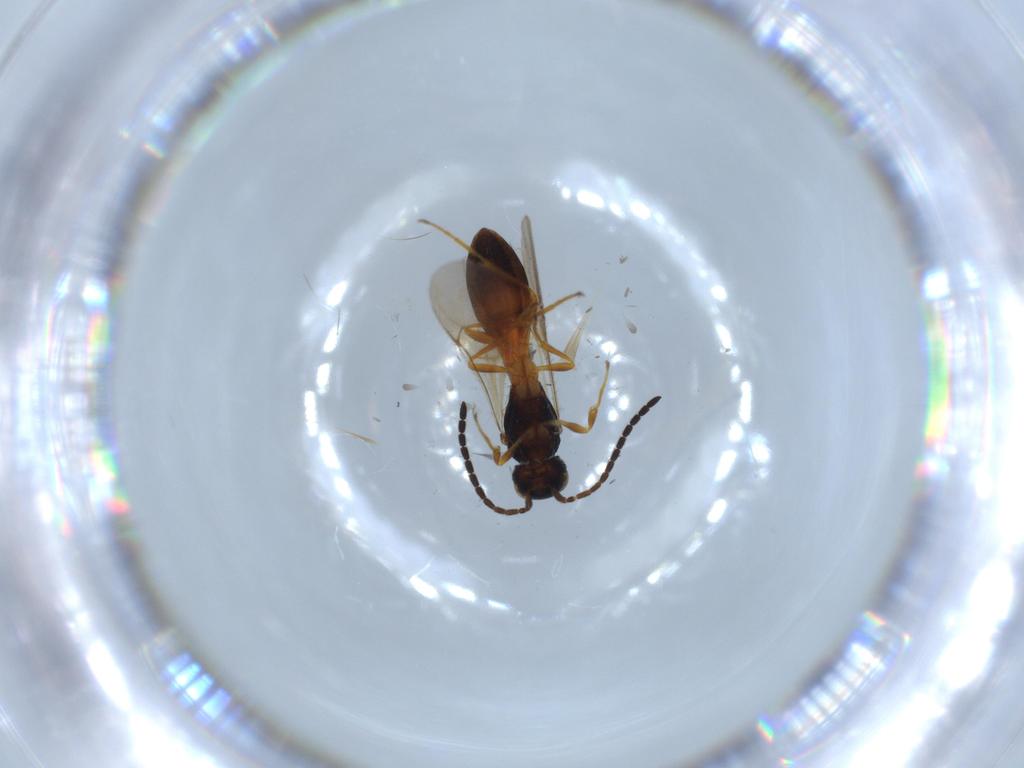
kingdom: Animalia
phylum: Arthropoda
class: Insecta
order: Hymenoptera
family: Scelionidae
